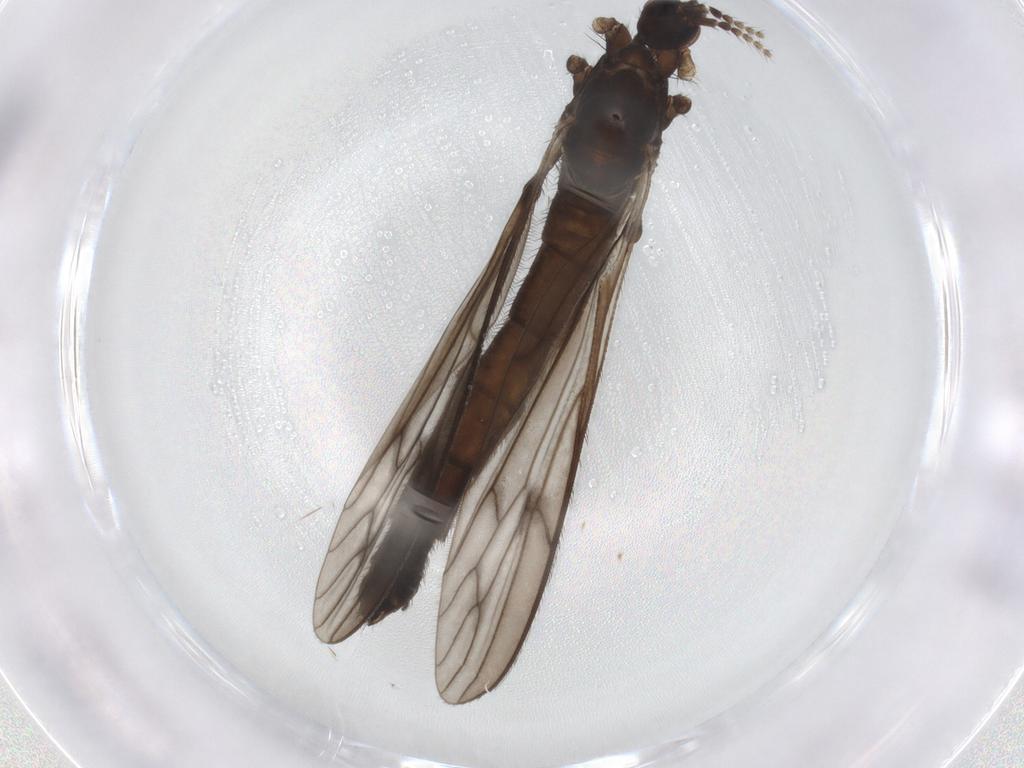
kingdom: Animalia
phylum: Arthropoda
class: Insecta
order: Diptera
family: Limoniidae
